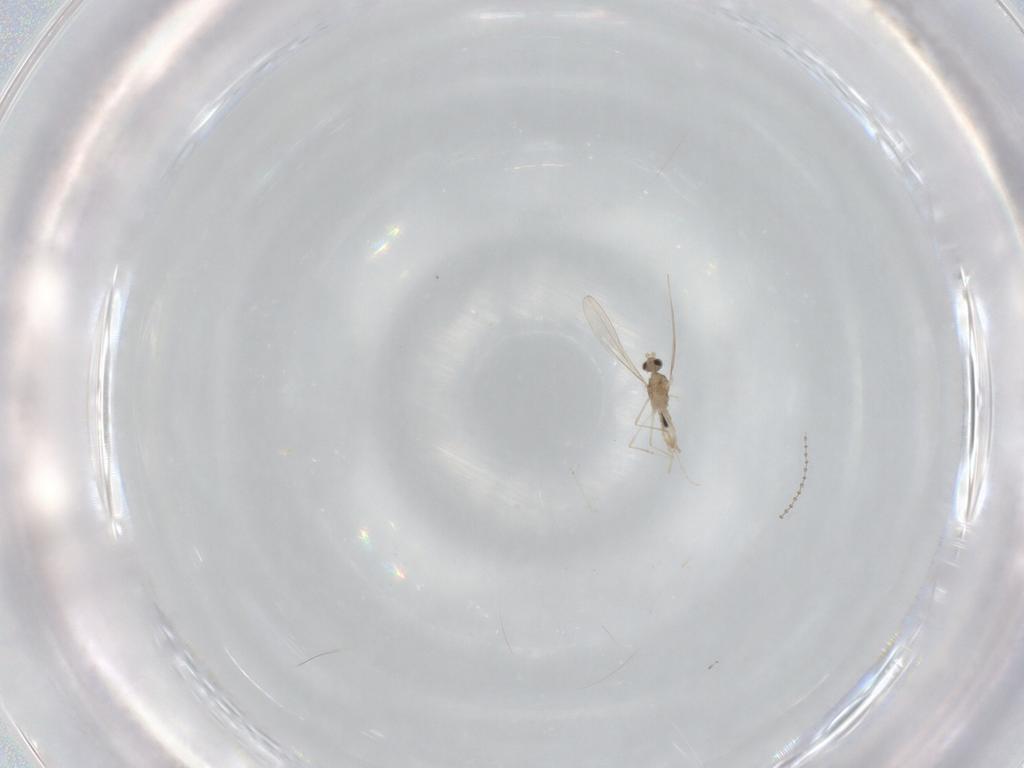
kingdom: Animalia
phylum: Arthropoda
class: Insecta
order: Diptera
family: Cecidomyiidae
